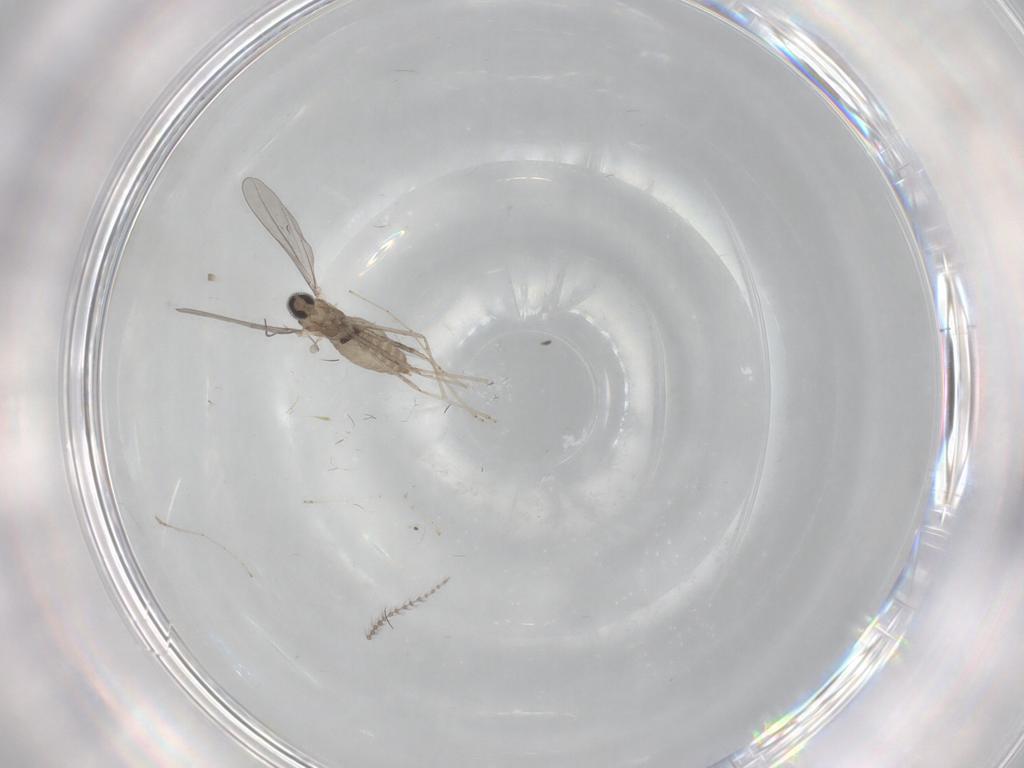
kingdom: Animalia
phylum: Arthropoda
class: Insecta
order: Diptera
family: Cecidomyiidae
